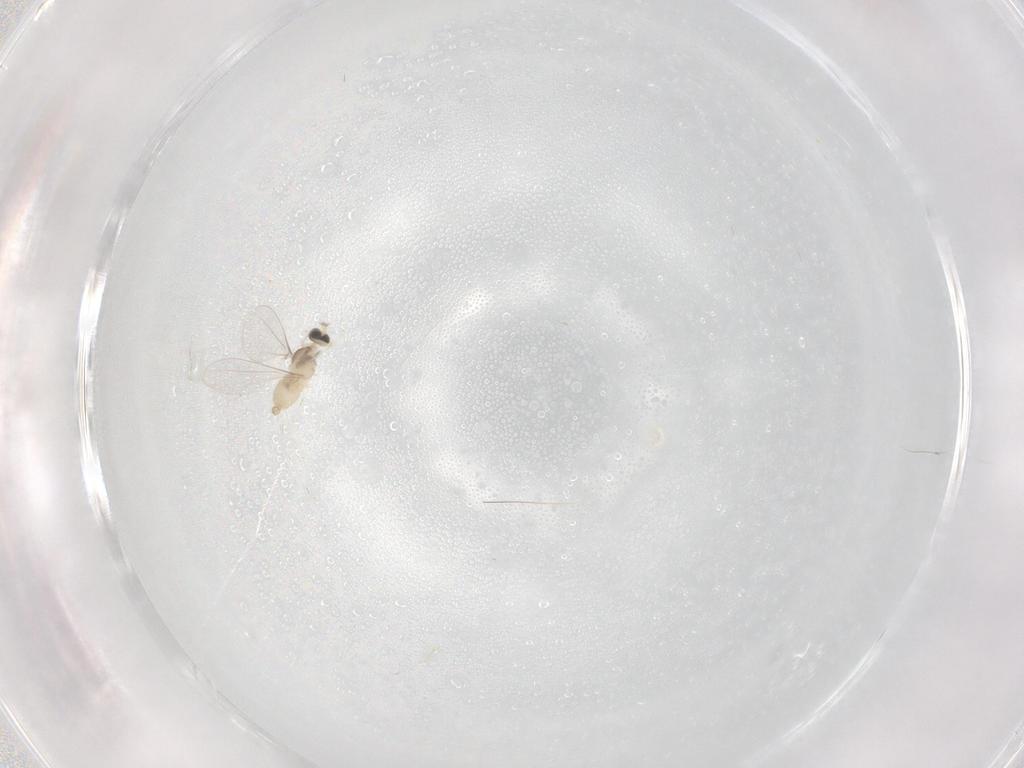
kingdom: Animalia
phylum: Arthropoda
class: Insecta
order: Diptera
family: Cecidomyiidae
